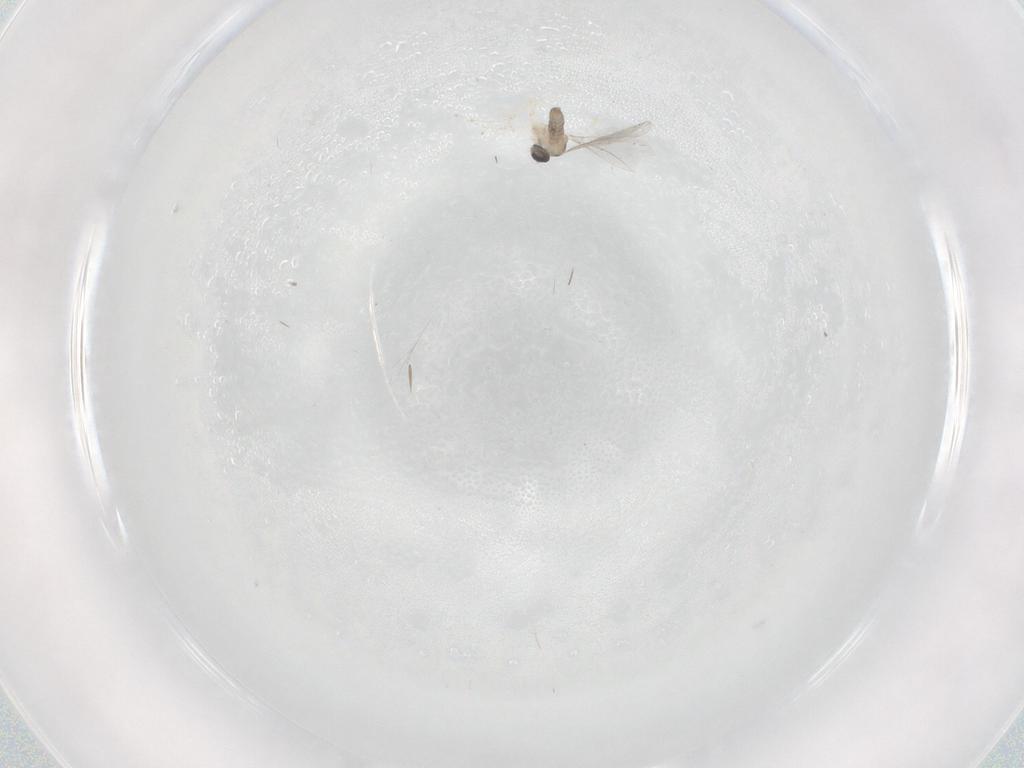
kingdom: Animalia
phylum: Arthropoda
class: Insecta
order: Diptera
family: Cecidomyiidae
